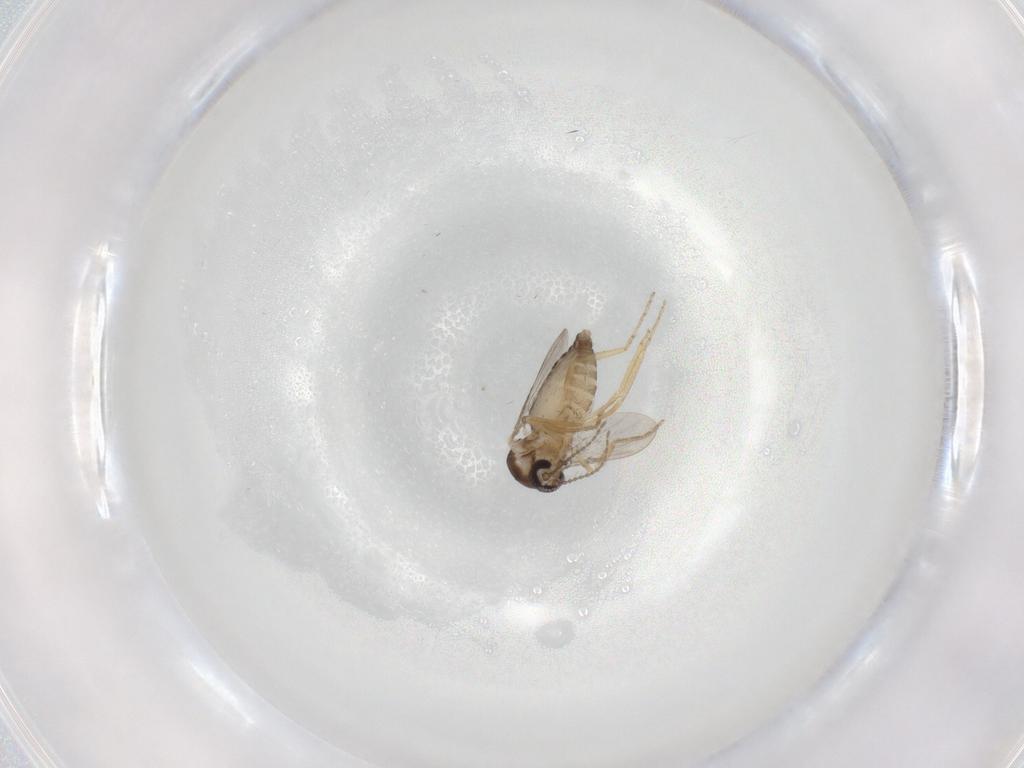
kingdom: Animalia
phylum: Arthropoda
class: Insecta
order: Diptera
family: Ceratopogonidae
